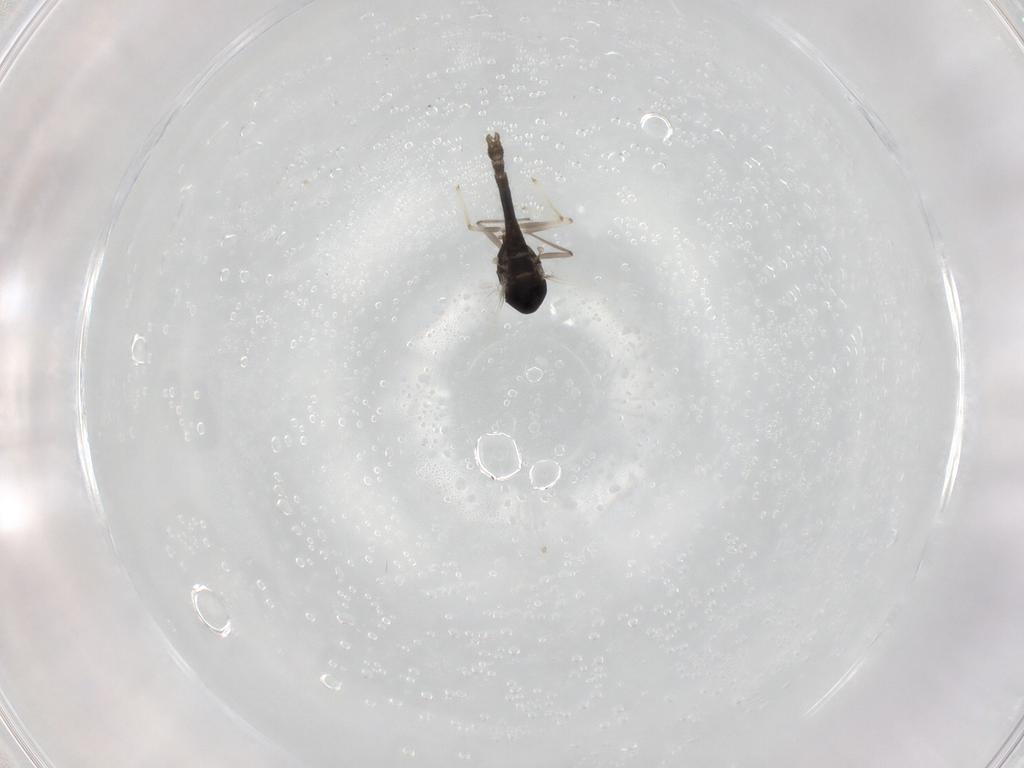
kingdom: Animalia
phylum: Arthropoda
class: Insecta
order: Diptera
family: Chironomidae
